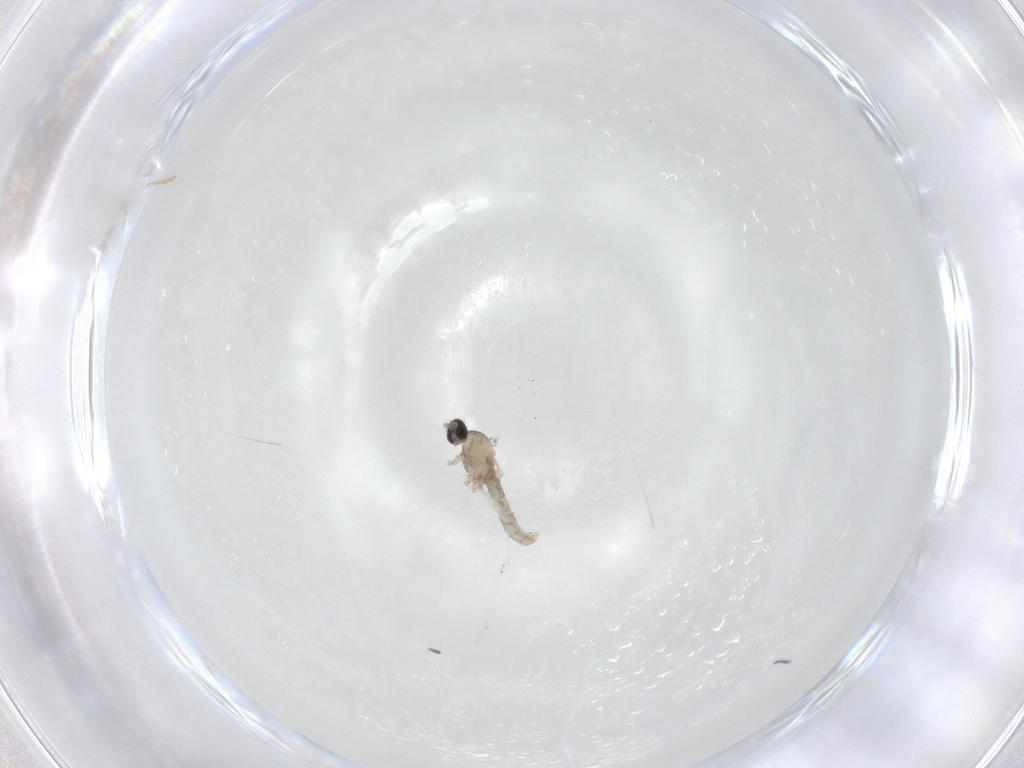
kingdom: Animalia
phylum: Arthropoda
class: Insecta
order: Diptera
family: Cecidomyiidae
